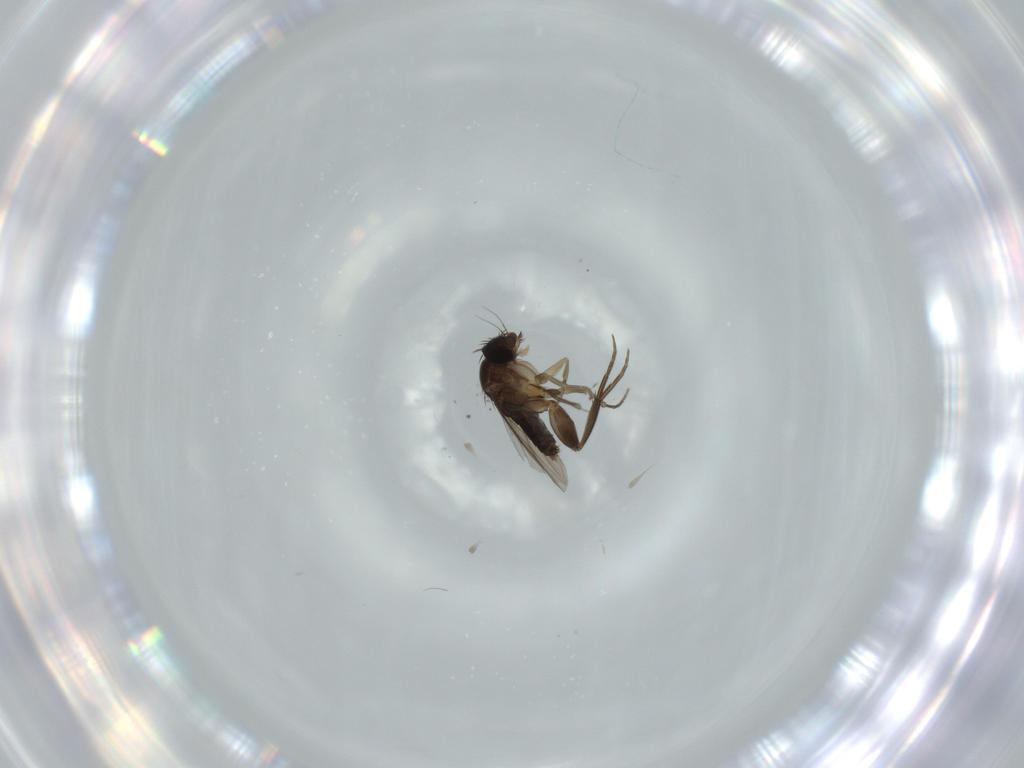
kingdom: Animalia
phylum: Arthropoda
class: Insecta
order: Diptera
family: Phoridae
